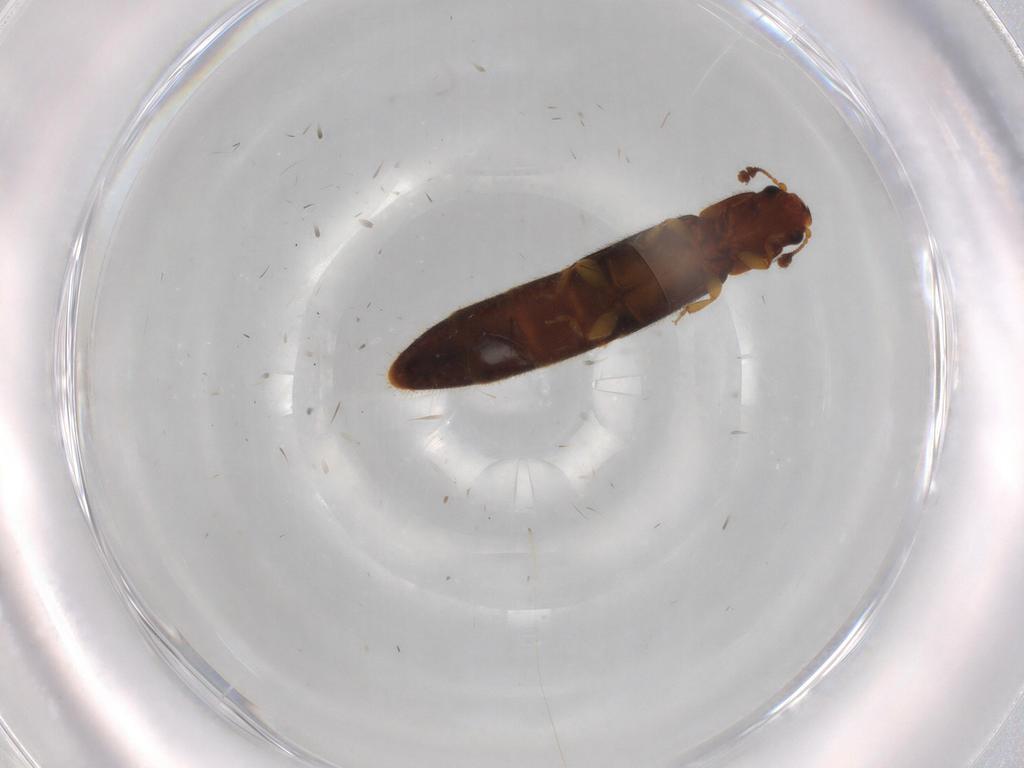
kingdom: Animalia
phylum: Arthropoda
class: Insecta
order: Coleoptera
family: Nitidulidae
